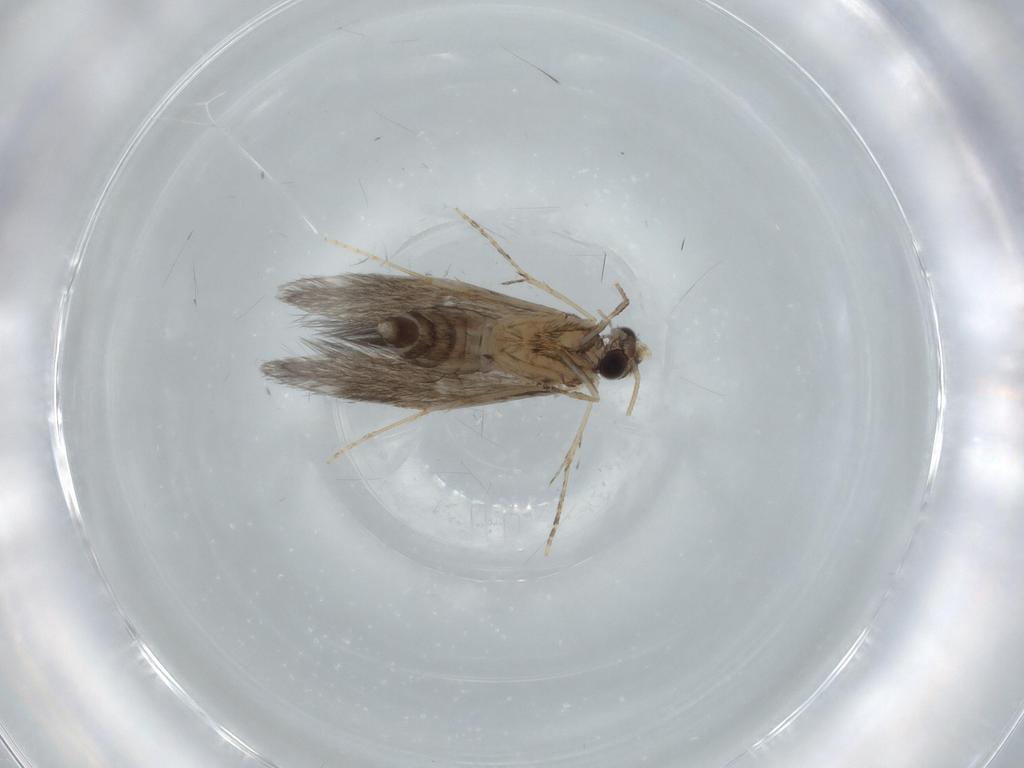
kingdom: Animalia
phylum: Arthropoda
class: Insecta
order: Trichoptera
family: Hydroptilidae
